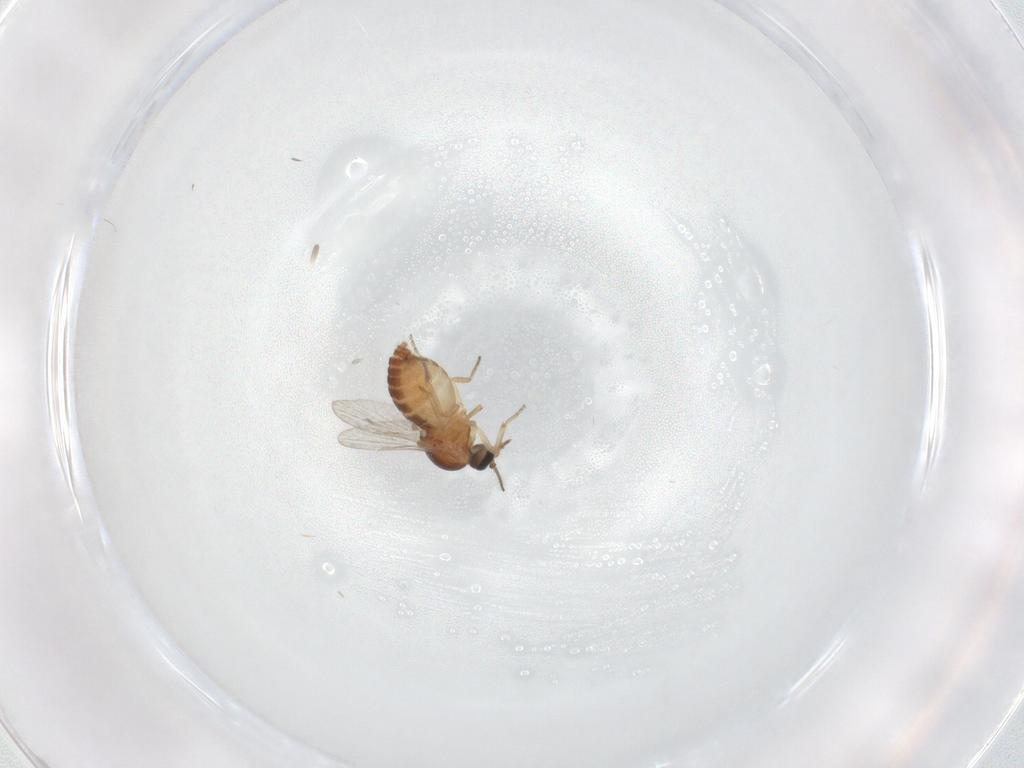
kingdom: Animalia
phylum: Arthropoda
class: Insecta
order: Diptera
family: Ceratopogonidae
